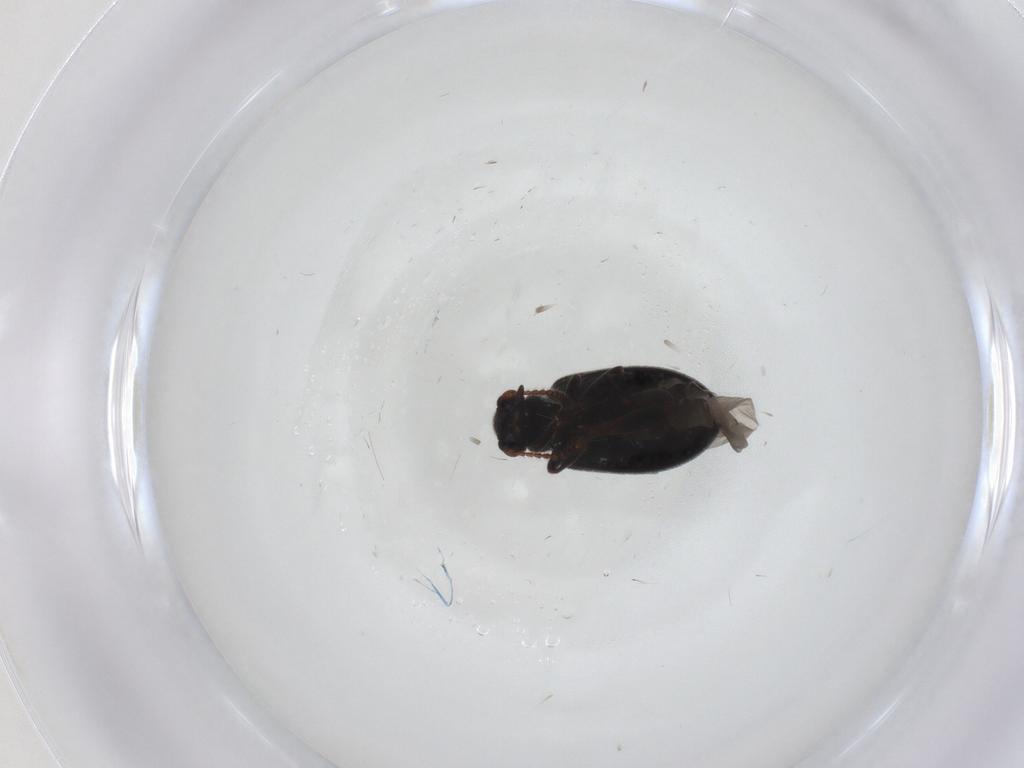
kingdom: Animalia
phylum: Arthropoda
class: Insecta
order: Coleoptera
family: Aderidae
